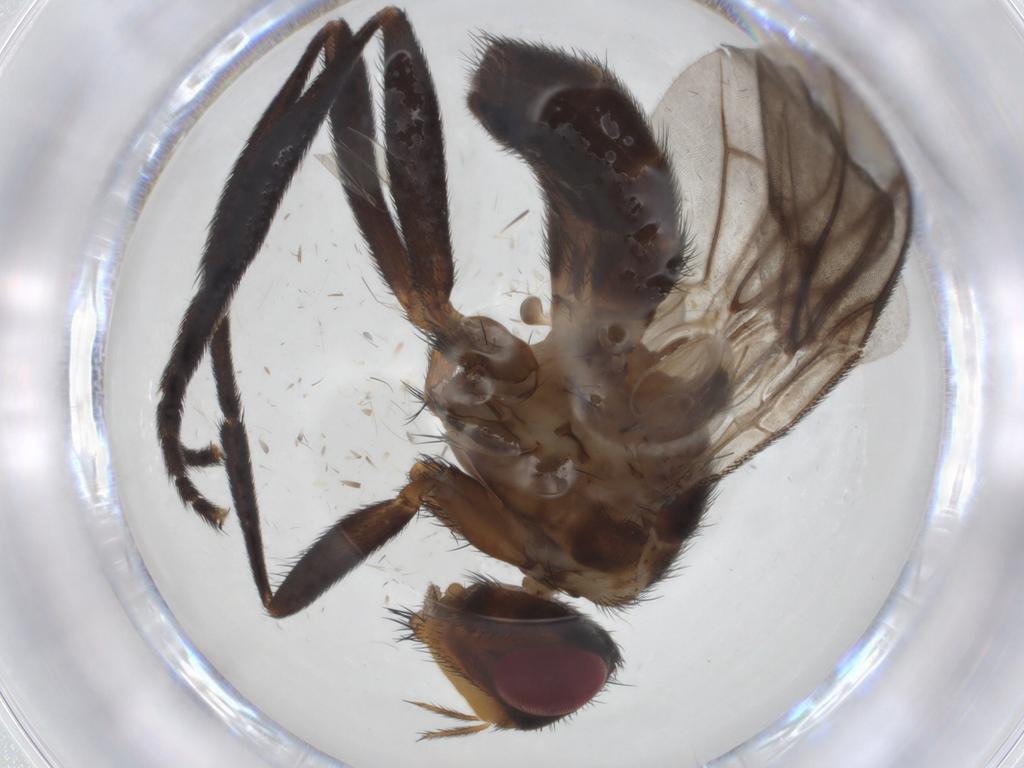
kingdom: Animalia
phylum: Arthropoda
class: Insecta
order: Diptera
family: Calliphoridae
